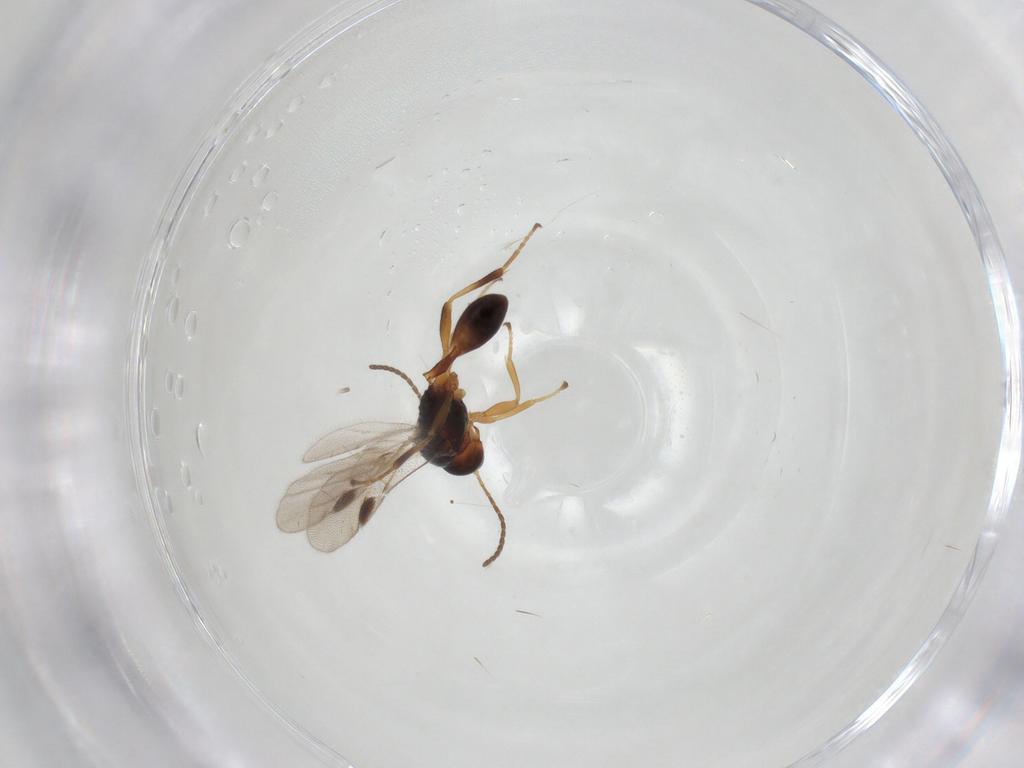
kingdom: Animalia
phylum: Arthropoda
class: Insecta
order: Hymenoptera
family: Braconidae
